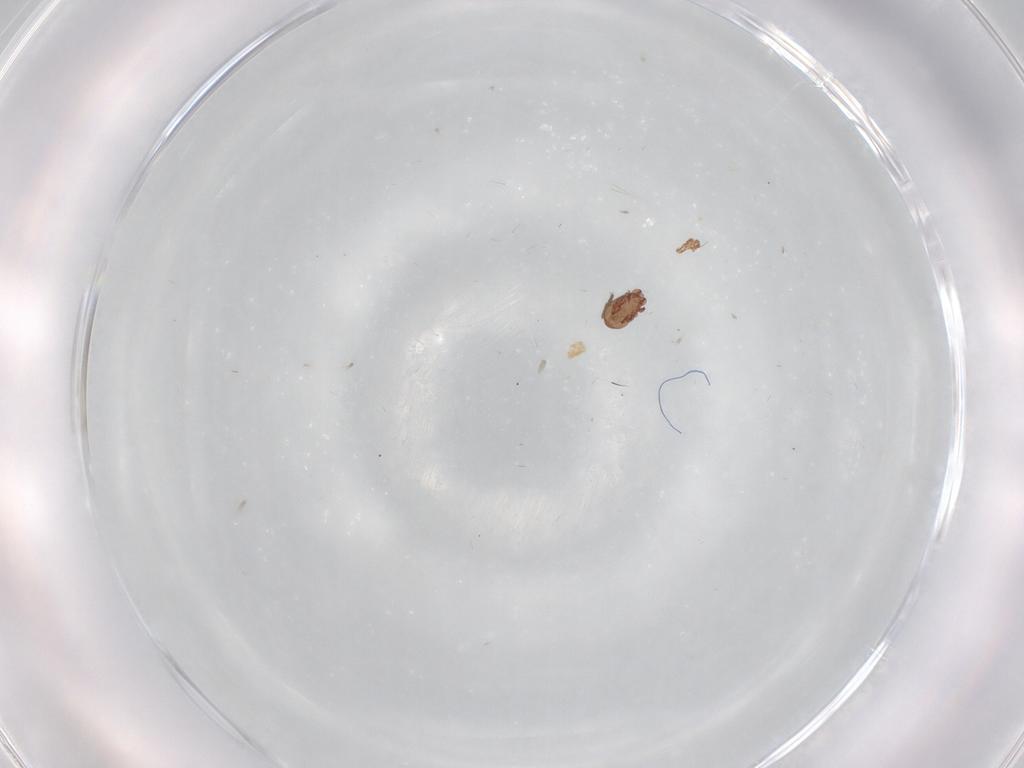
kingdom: Animalia
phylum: Arthropoda
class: Arachnida
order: Sarcoptiformes
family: Eremaeidae
